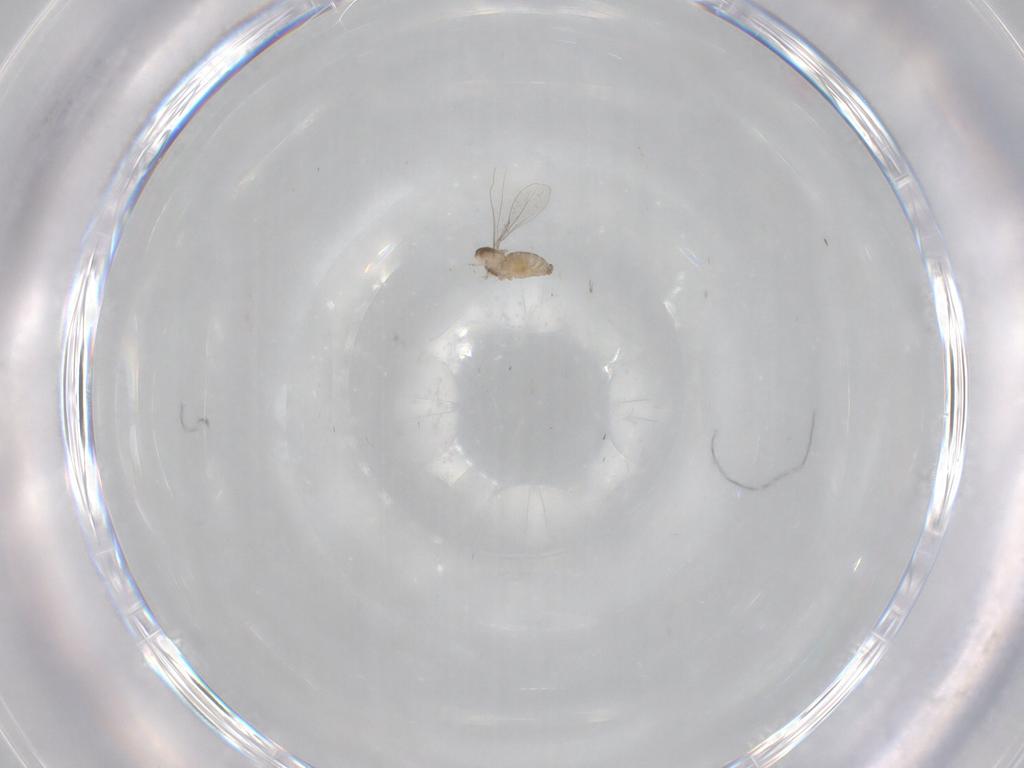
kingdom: Animalia
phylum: Arthropoda
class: Insecta
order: Diptera
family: Cecidomyiidae
